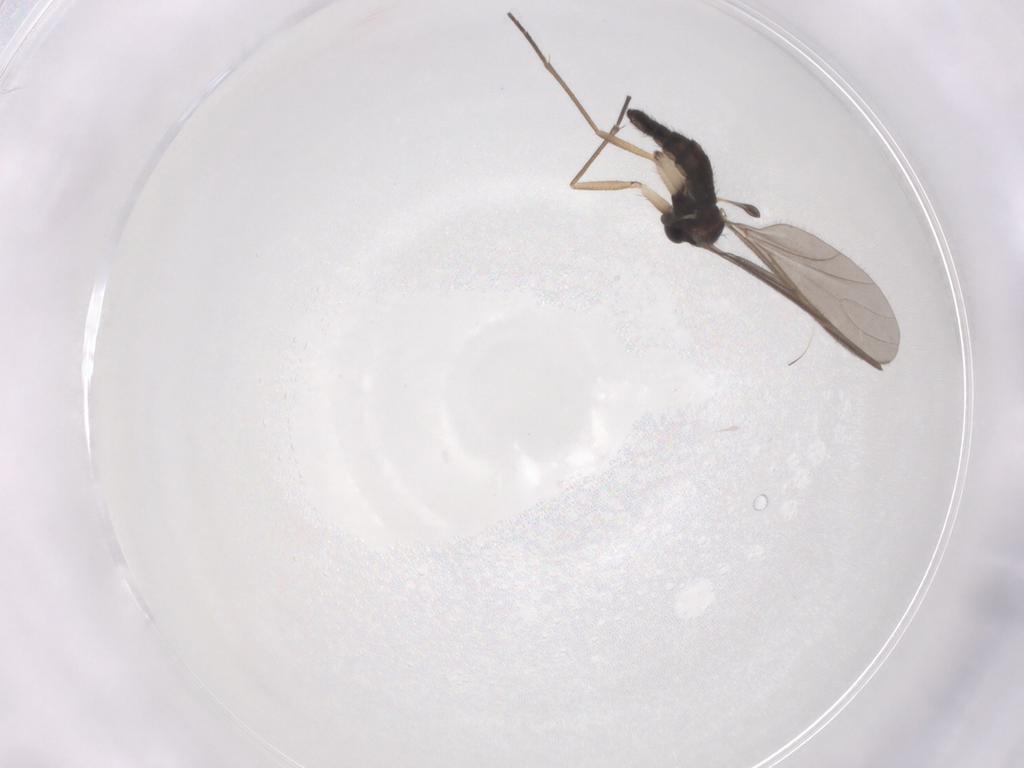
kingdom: Animalia
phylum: Arthropoda
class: Insecta
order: Diptera
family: Sciaridae
